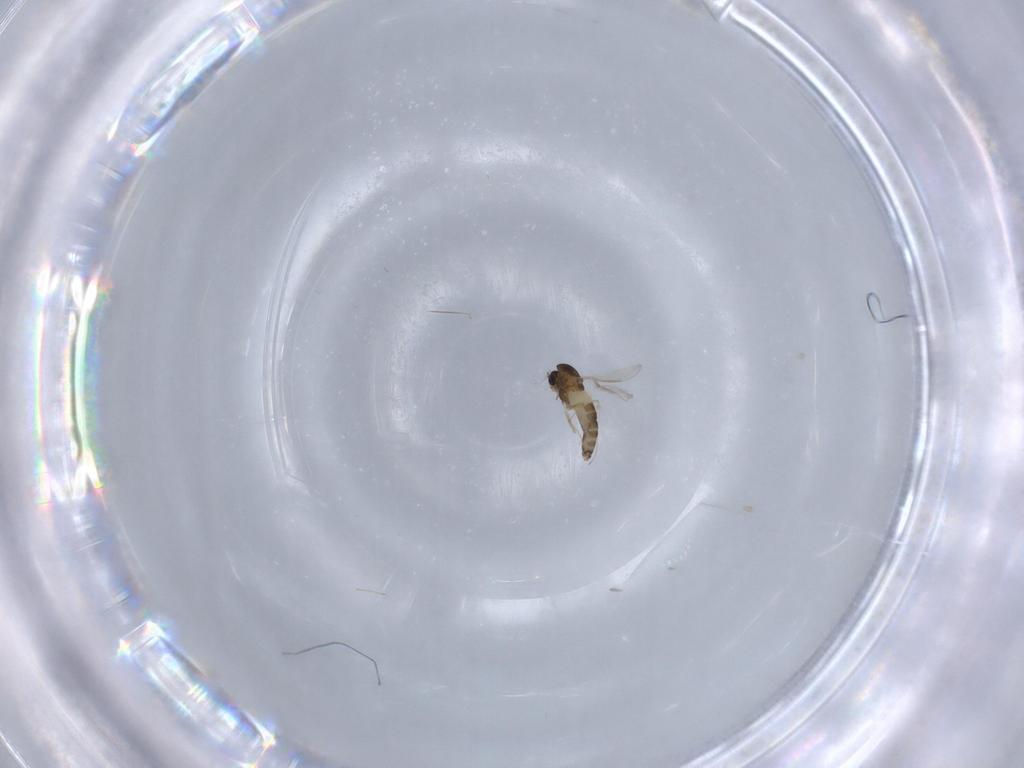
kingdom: Animalia
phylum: Arthropoda
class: Insecta
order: Diptera
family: Chironomidae
